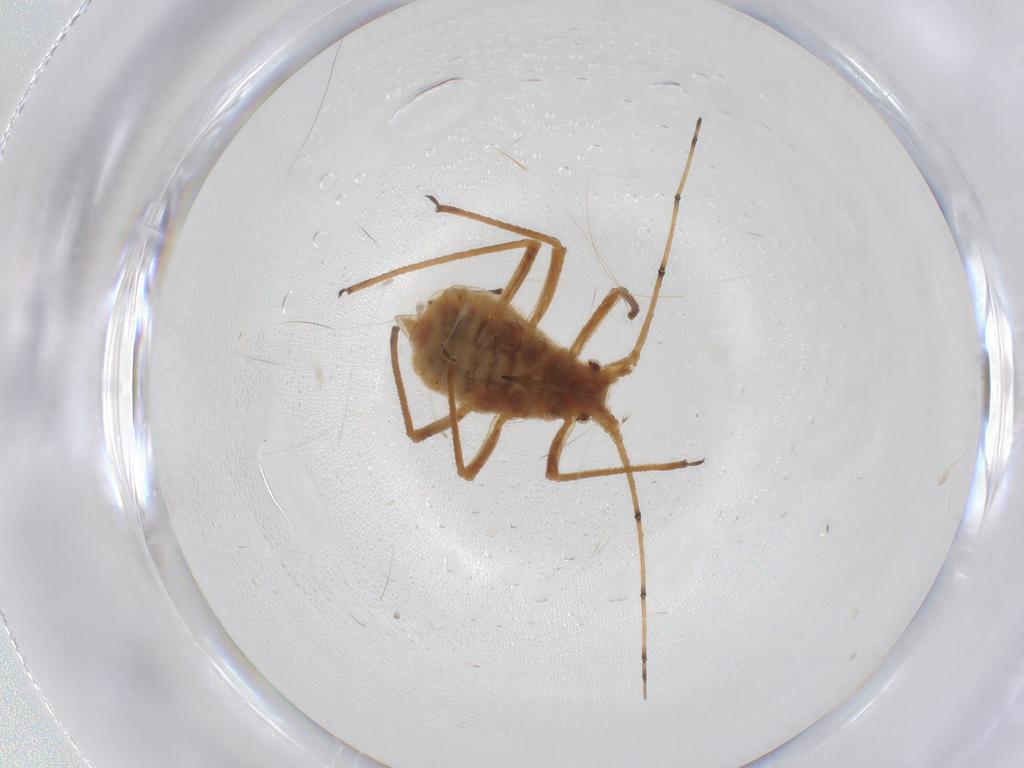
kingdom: Animalia
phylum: Arthropoda
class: Insecta
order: Hemiptera
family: Aphididae
